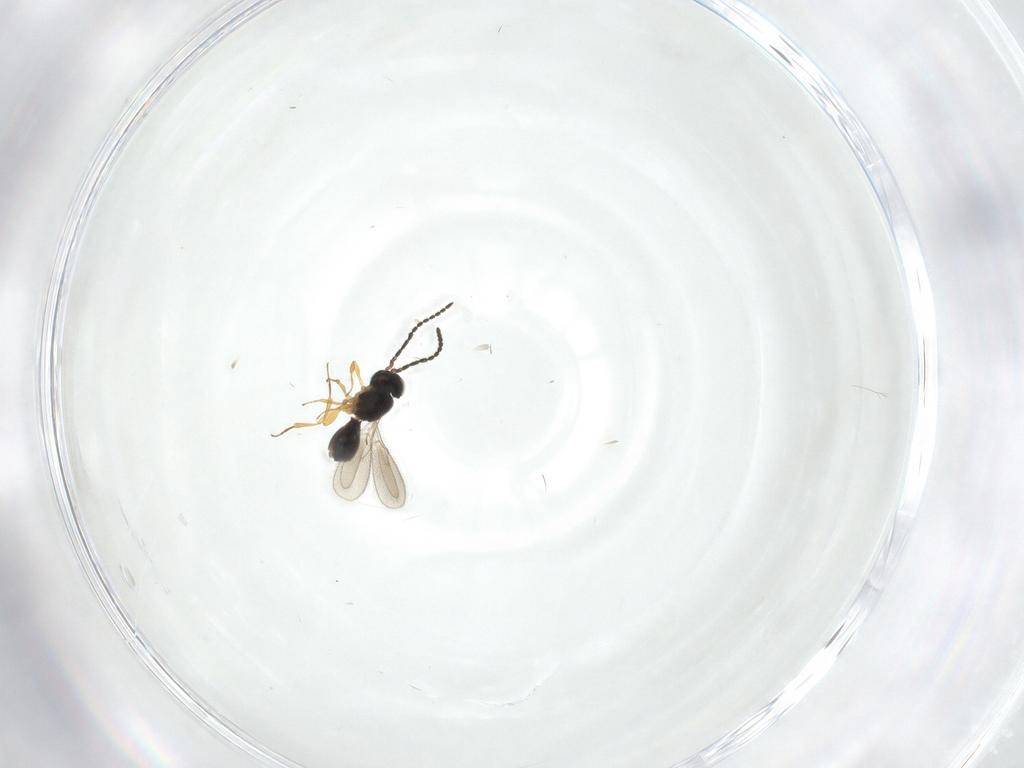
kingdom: Animalia
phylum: Arthropoda
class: Insecta
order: Hymenoptera
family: Scelionidae
